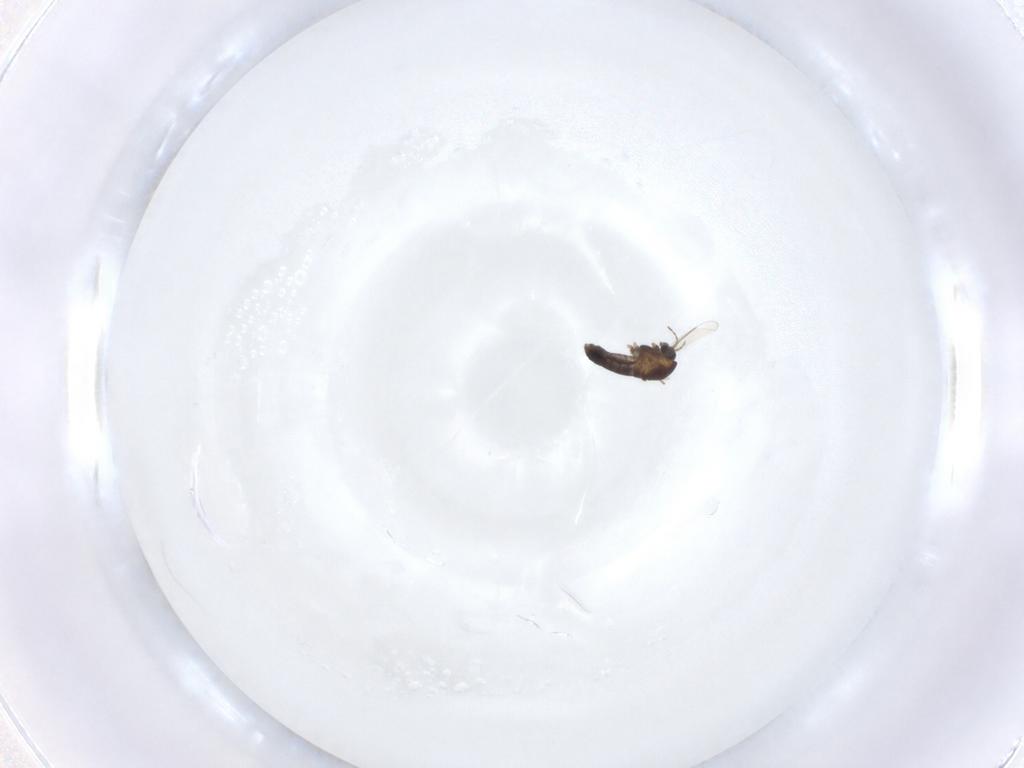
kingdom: Animalia
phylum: Arthropoda
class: Insecta
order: Diptera
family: Chironomidae
